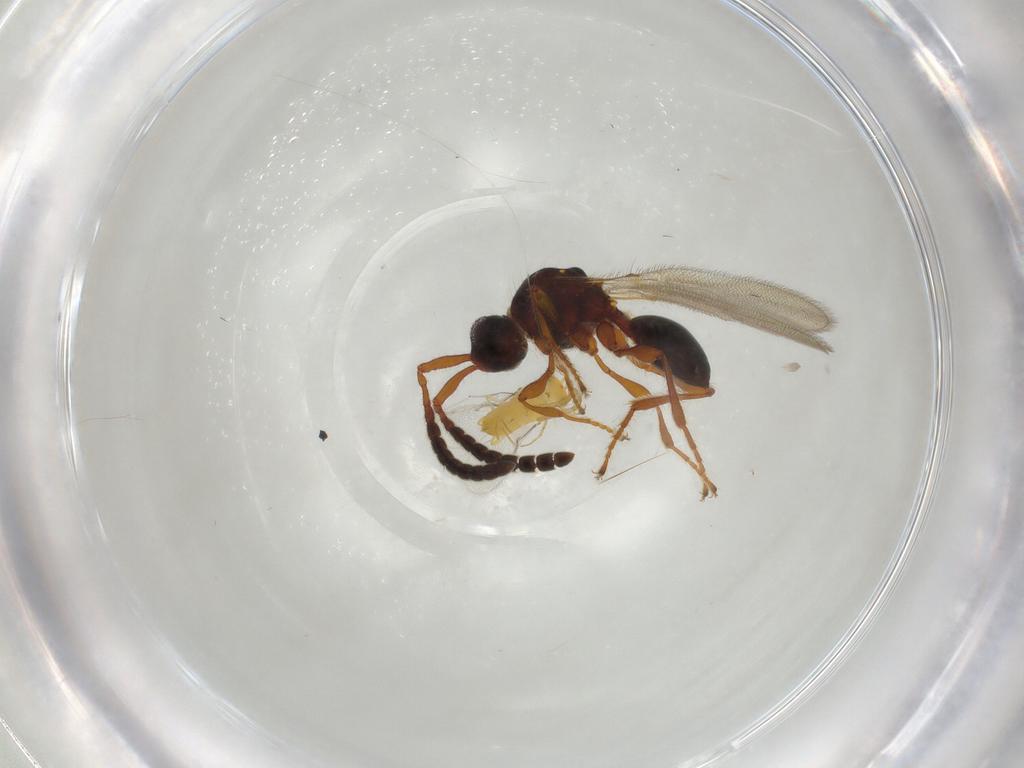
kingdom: Animalia
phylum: Arthropoda
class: Insecta
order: Hymenoptera
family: Diapriidae
